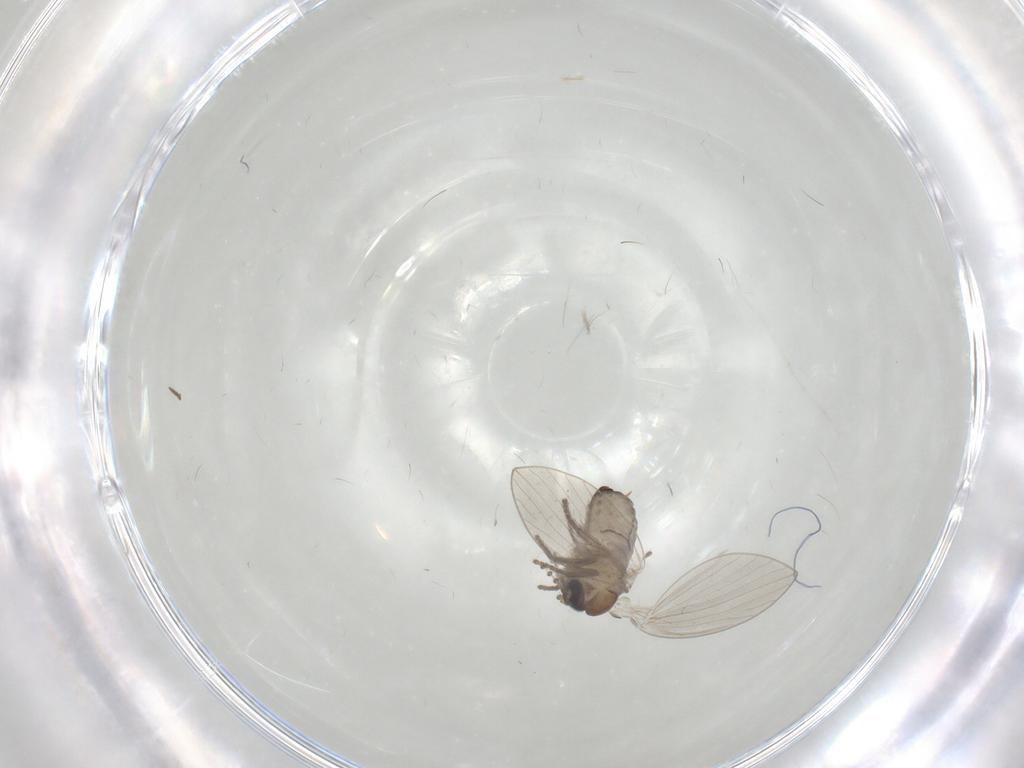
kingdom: Animalia
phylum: Arthropoda
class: Insecta
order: Diptera
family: Psychodidae
